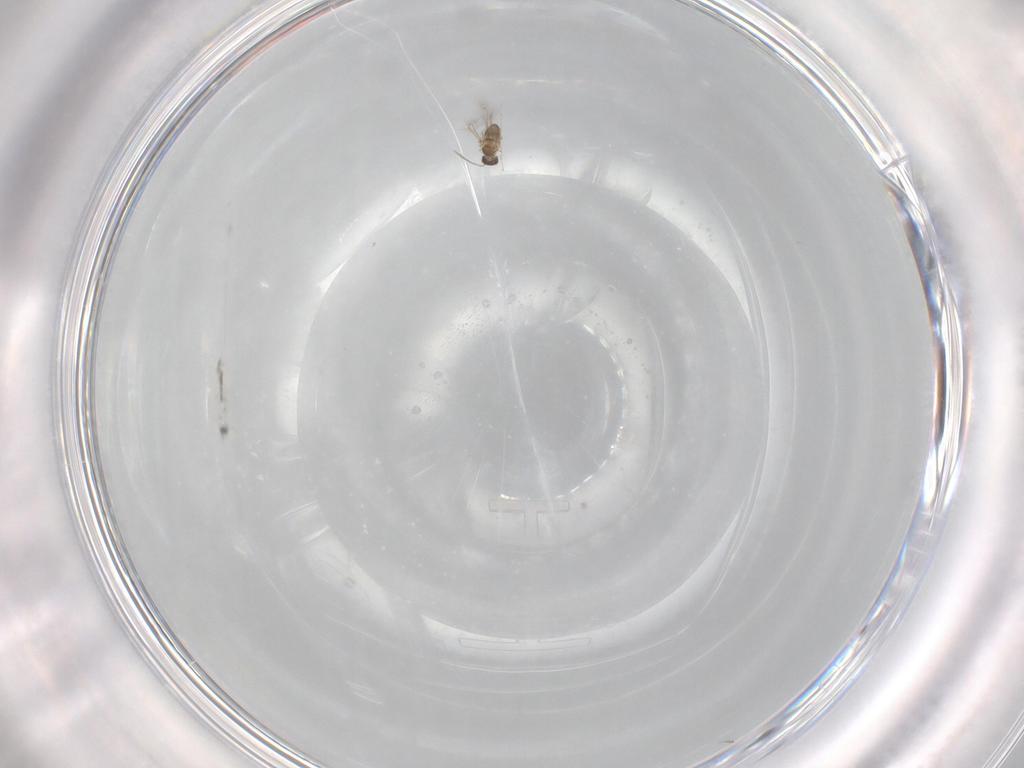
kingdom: Animalia
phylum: Arthropoda
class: Insecta
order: Hymenoptera
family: Mymaridae
